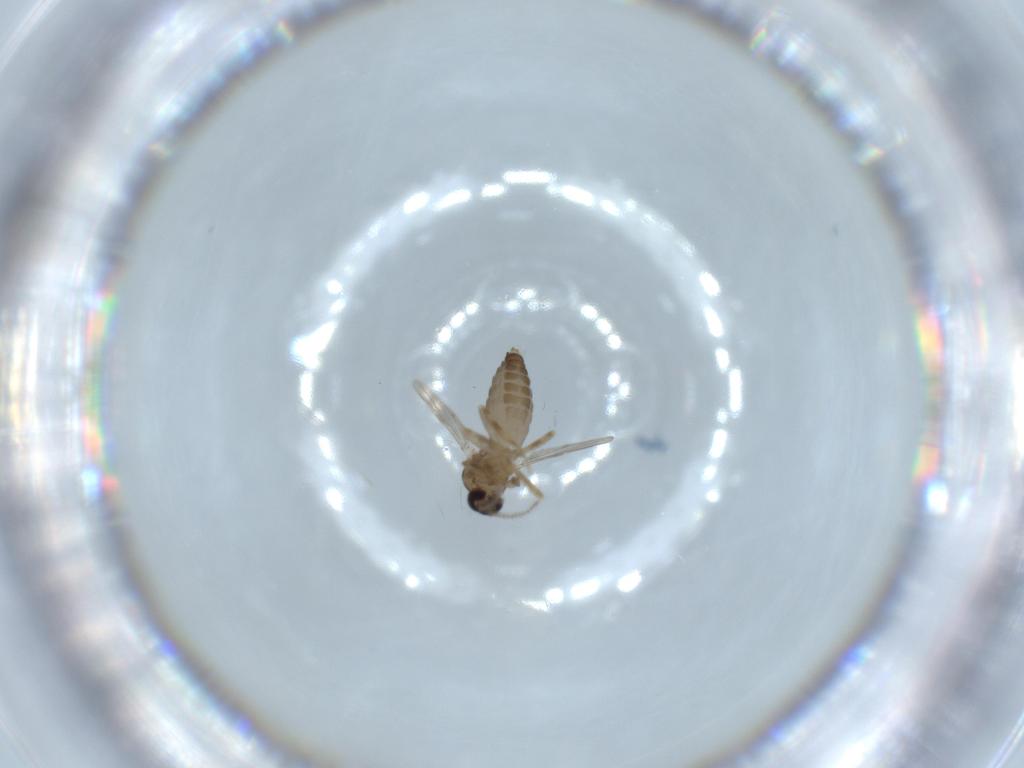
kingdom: Animalia
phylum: Arthropoda
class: Insecta
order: Diptera
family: Ceratopogonidae
